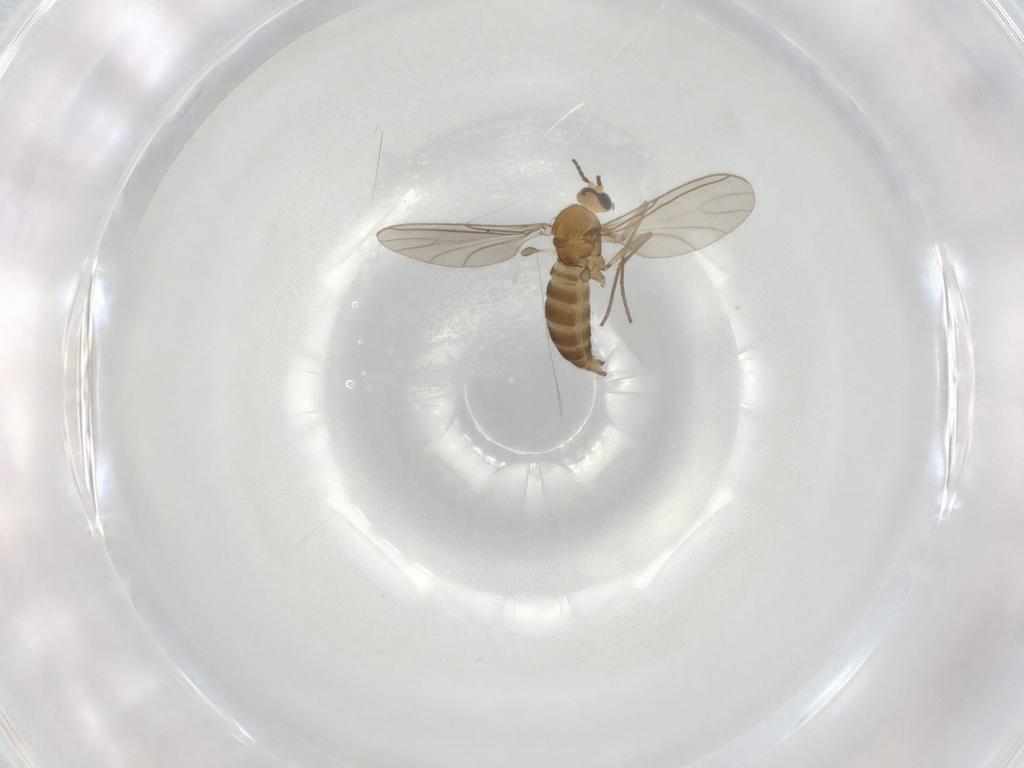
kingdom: Animalia
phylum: Arthropoda
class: Insecta
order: Diptera
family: Sciaridae
